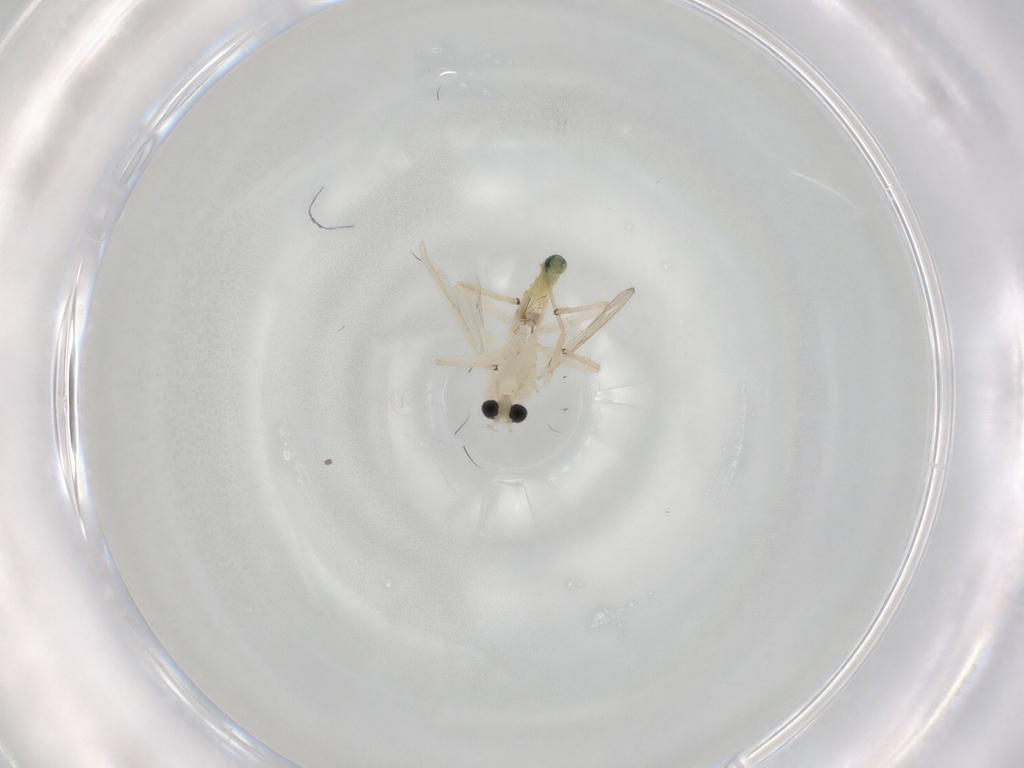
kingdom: Animalia
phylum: Arthropoda
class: Insecta
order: Diptera
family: Chironomidae
